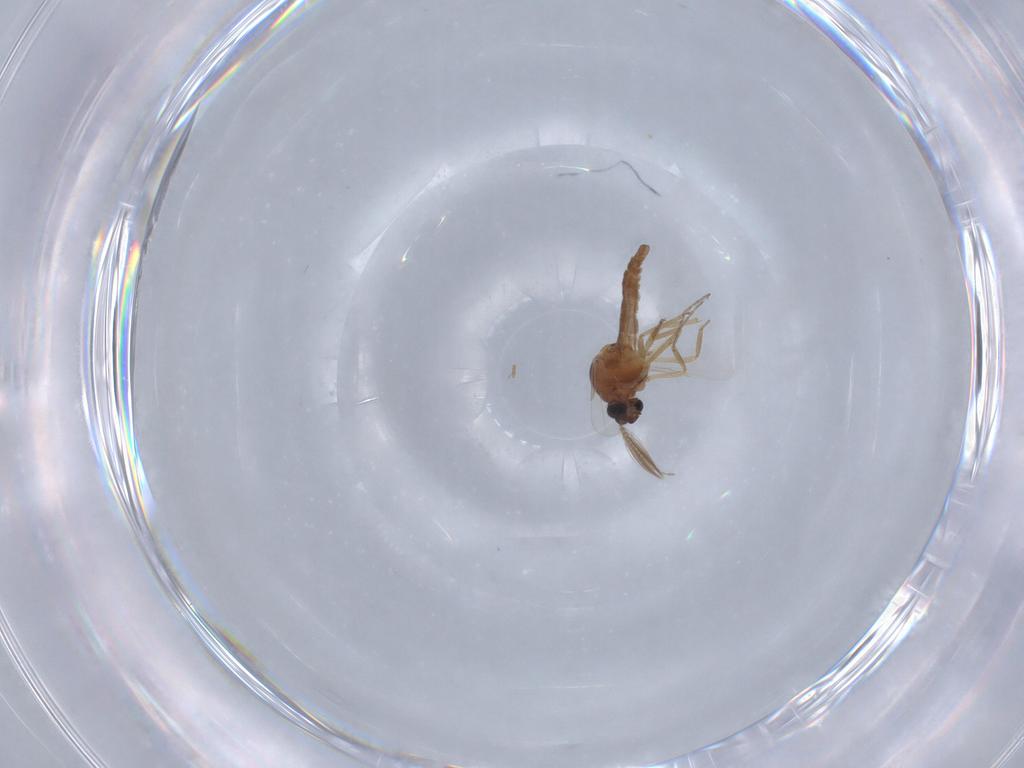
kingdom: Animalia
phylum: Arthropoda
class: Insecta
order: Diptera
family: Ceratopogonidae
